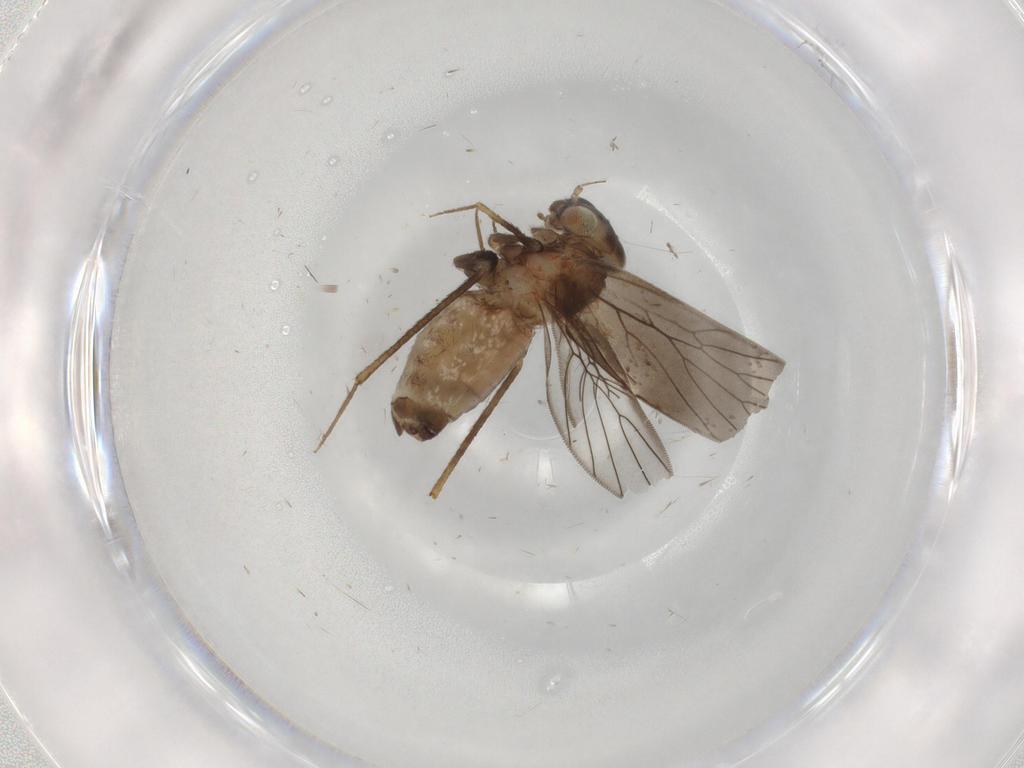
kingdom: Animalia
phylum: Arthropoda
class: Insecta
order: Psocodea
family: Lepidopsocidae
